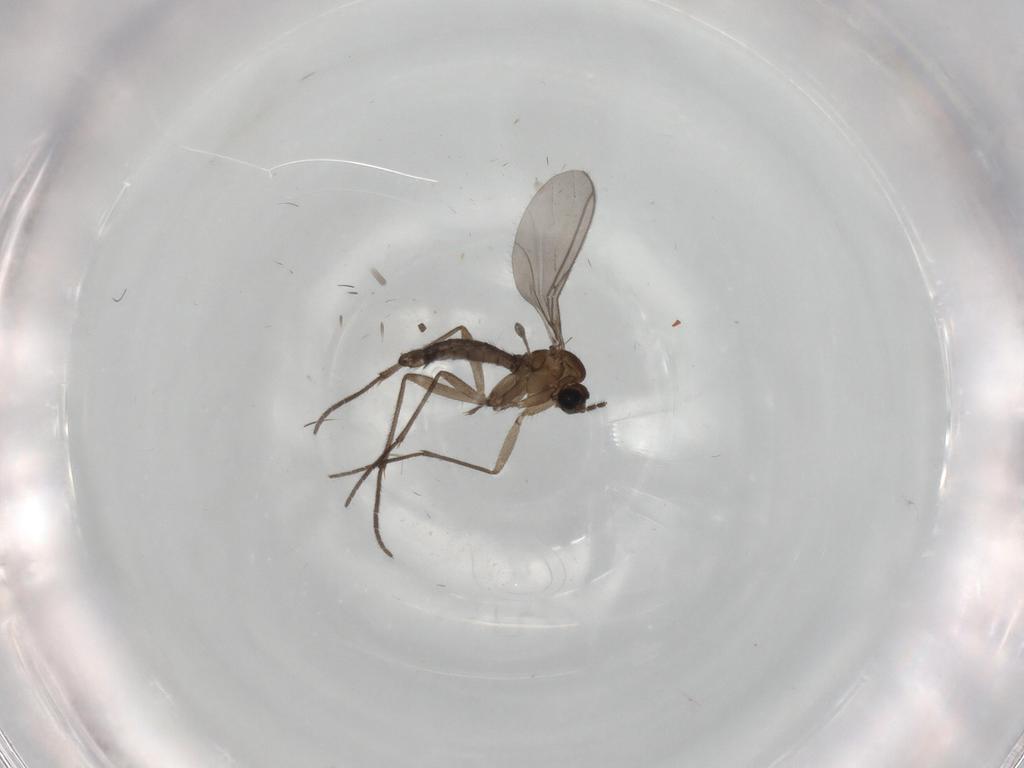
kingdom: Animalia
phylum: Arthropoda
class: Insecta
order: Diptera
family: Sciaridae
